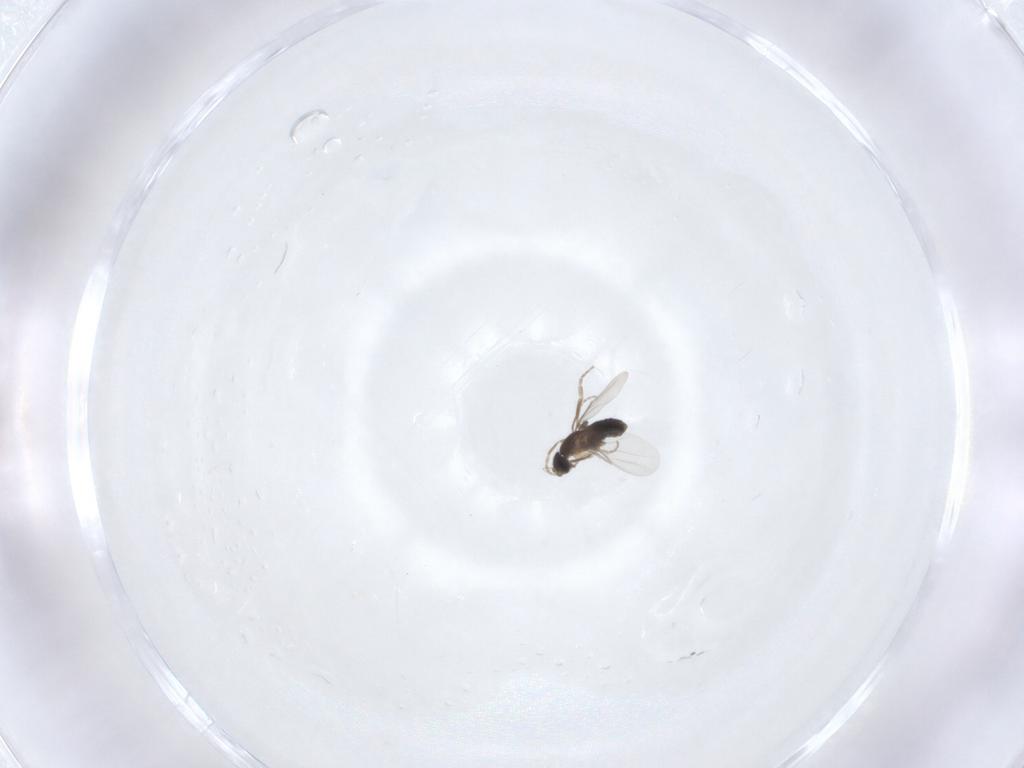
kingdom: Animalia
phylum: Arthropoda
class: Insecta
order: Diptera
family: Phoridae
